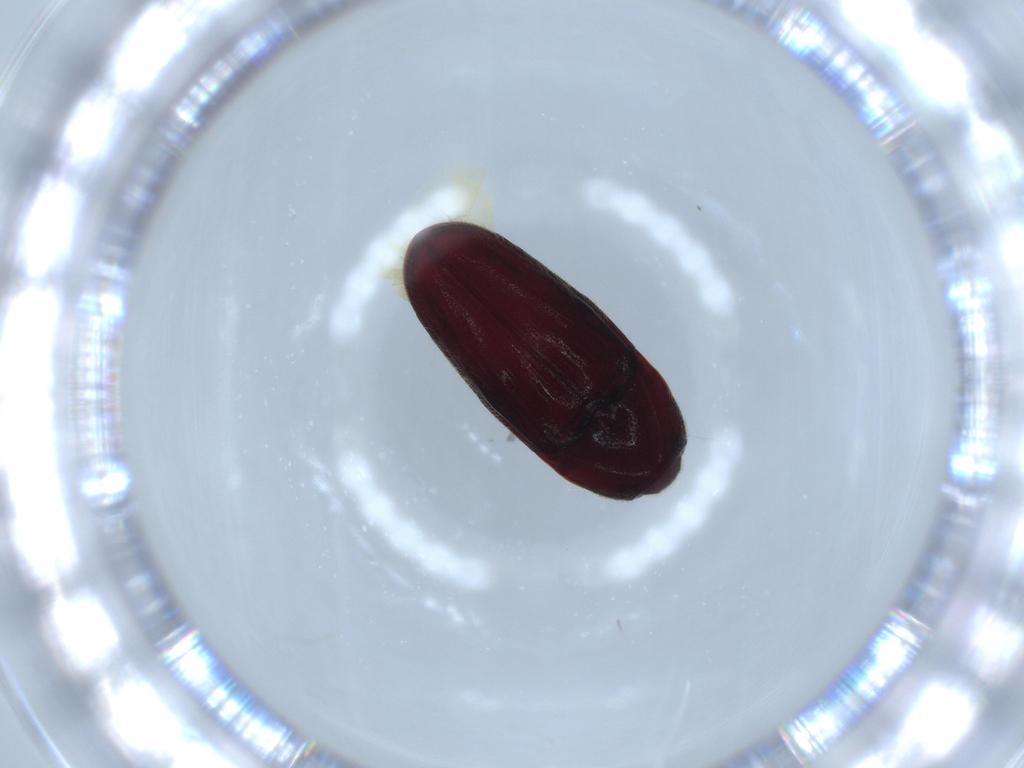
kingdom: Animalia
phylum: Arthropoda
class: Insecta
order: Coleoptera
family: Throscidae
